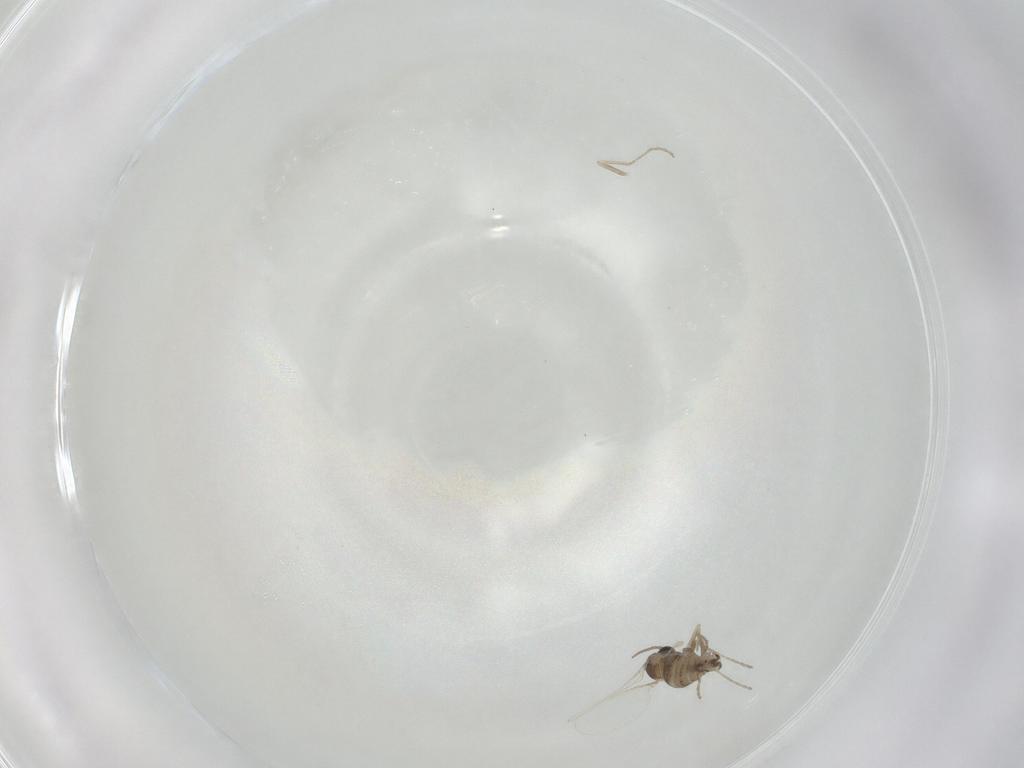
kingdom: Animalia
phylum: Arthropoda
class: Insecta
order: Diptera
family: Cecidomyiidae
